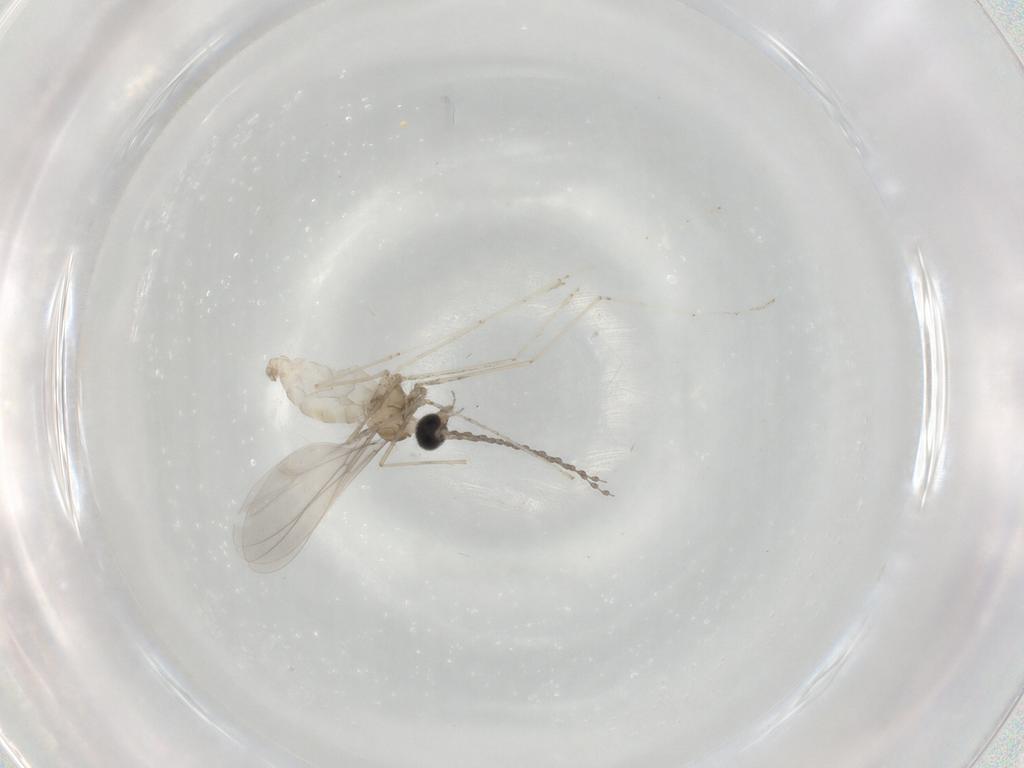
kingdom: Animalia
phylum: Arthropoda
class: Insecta
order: Diptera
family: Cecidomyiidae
